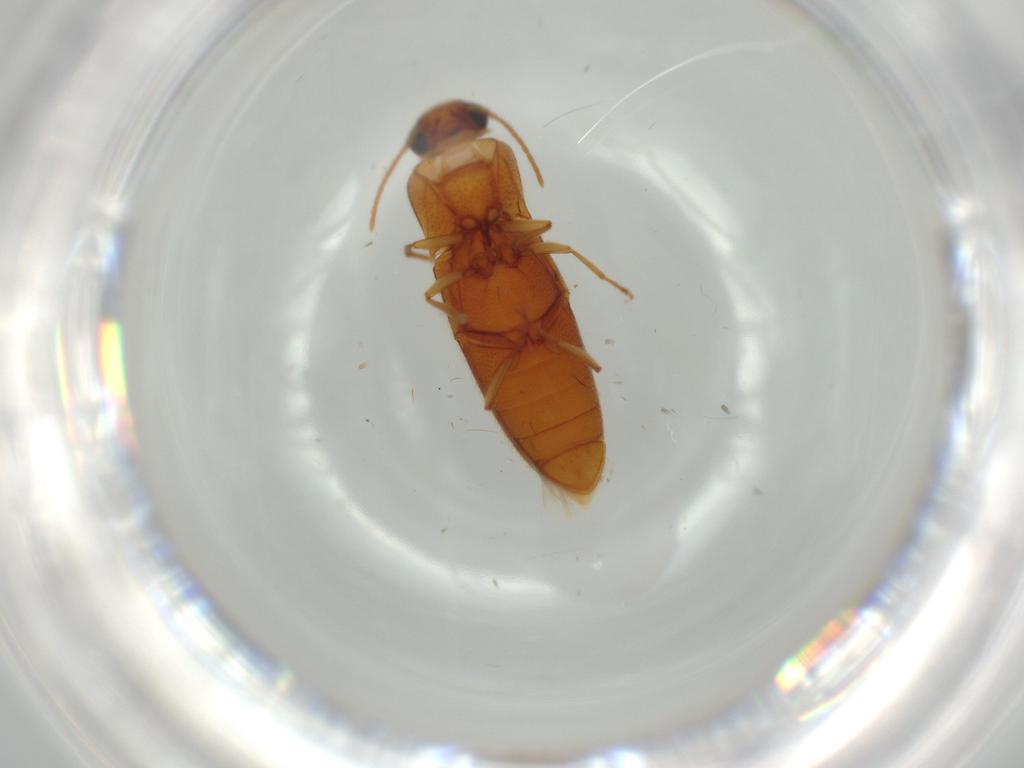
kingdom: Animalia
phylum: Arthropoda
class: Insecta
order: Coleoptera
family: Elateridae
